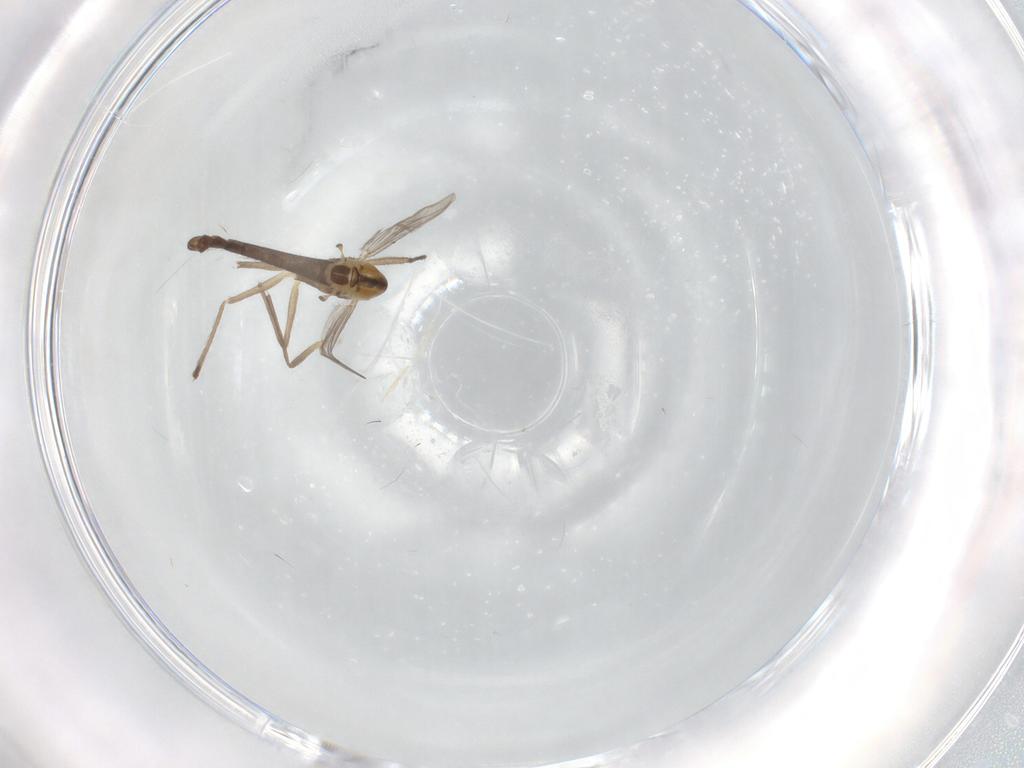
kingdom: Animalia
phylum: Arthropoda
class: Insecta
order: Diptera
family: Chironomidae
